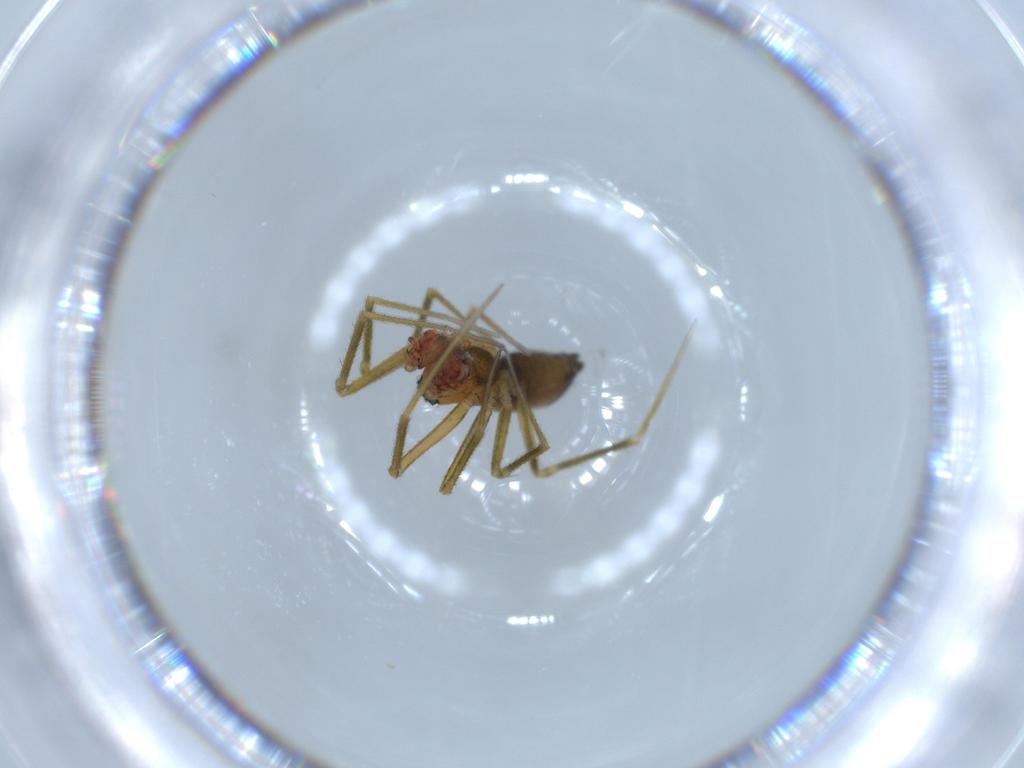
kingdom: Animalia
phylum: Arthropoda
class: Arachnida
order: Araneae
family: Linyphiidae
